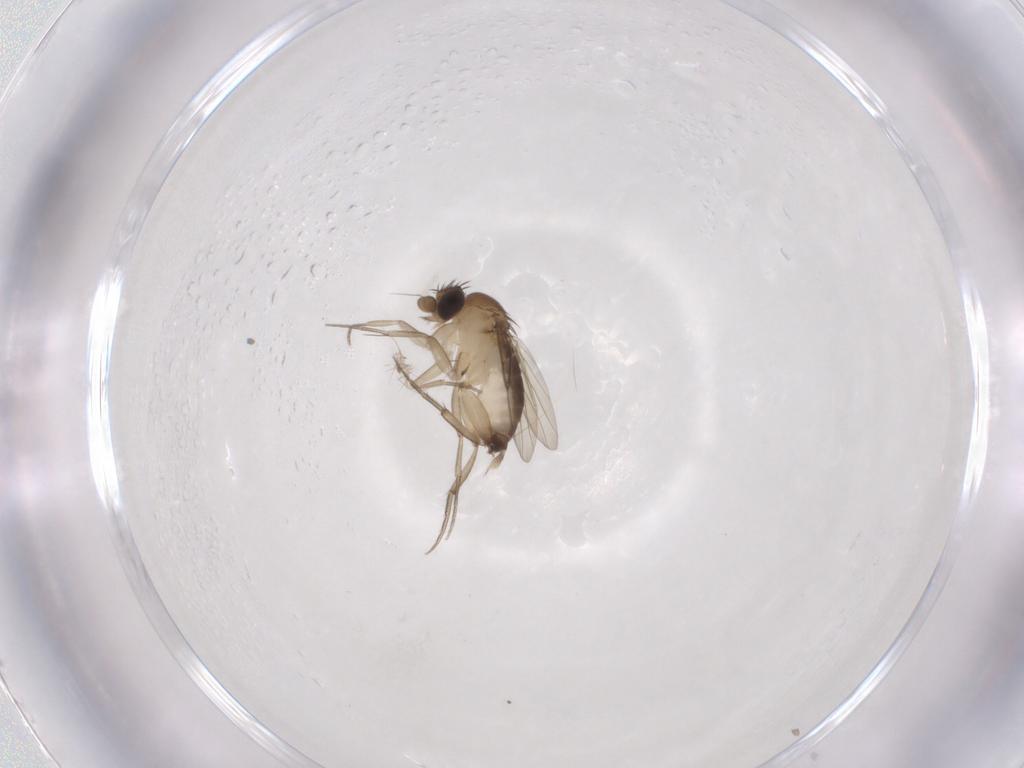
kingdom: Animalia
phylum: Arthropoda
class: Insecta
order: Diptera
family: Phoridae
